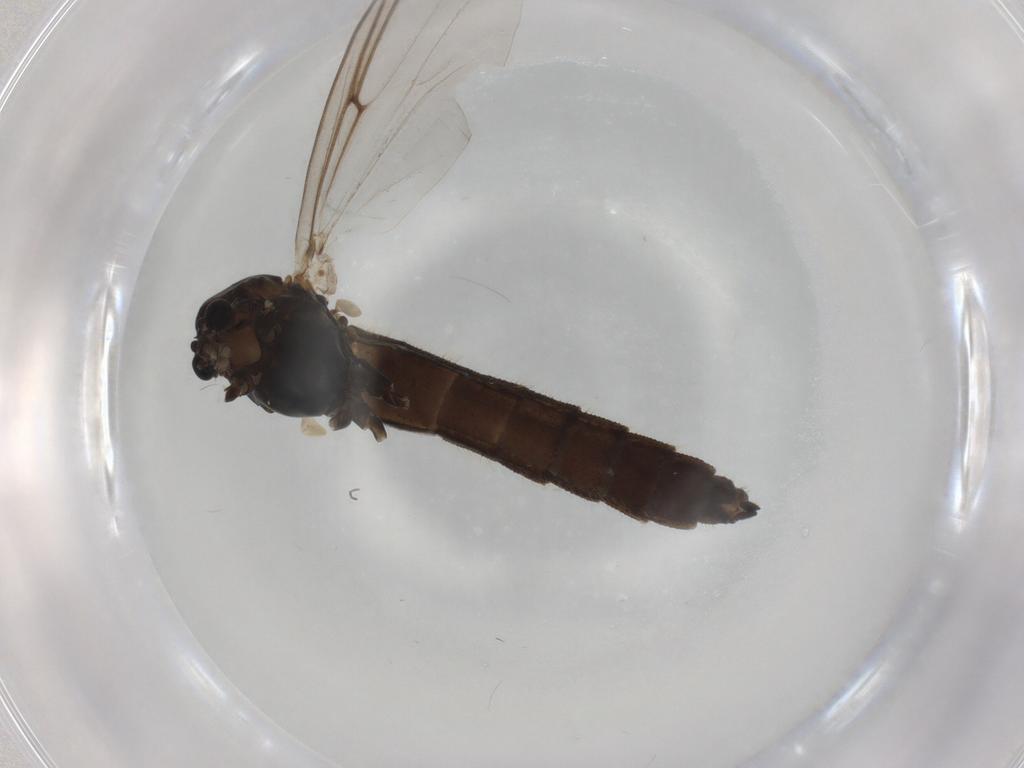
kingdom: Animalia
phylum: Arthropoda
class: Insecta
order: Diptera
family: Chironomidae
